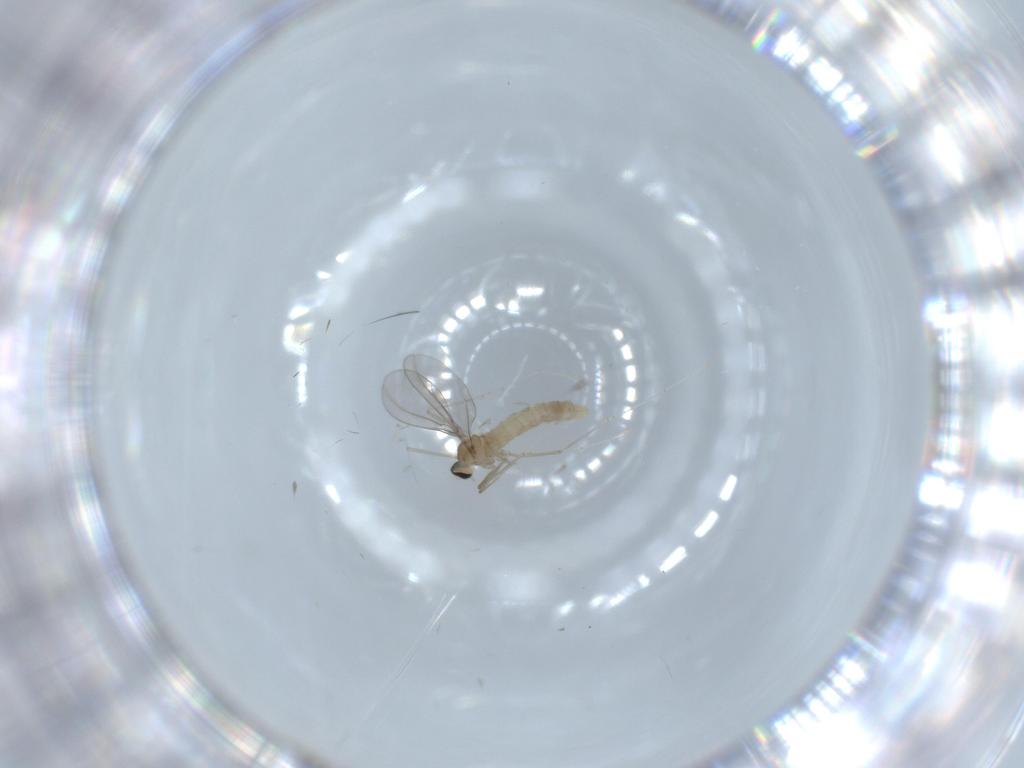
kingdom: Animalia
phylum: Arthropoda
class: Insecta
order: Diptera
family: Cecidomyiidae
